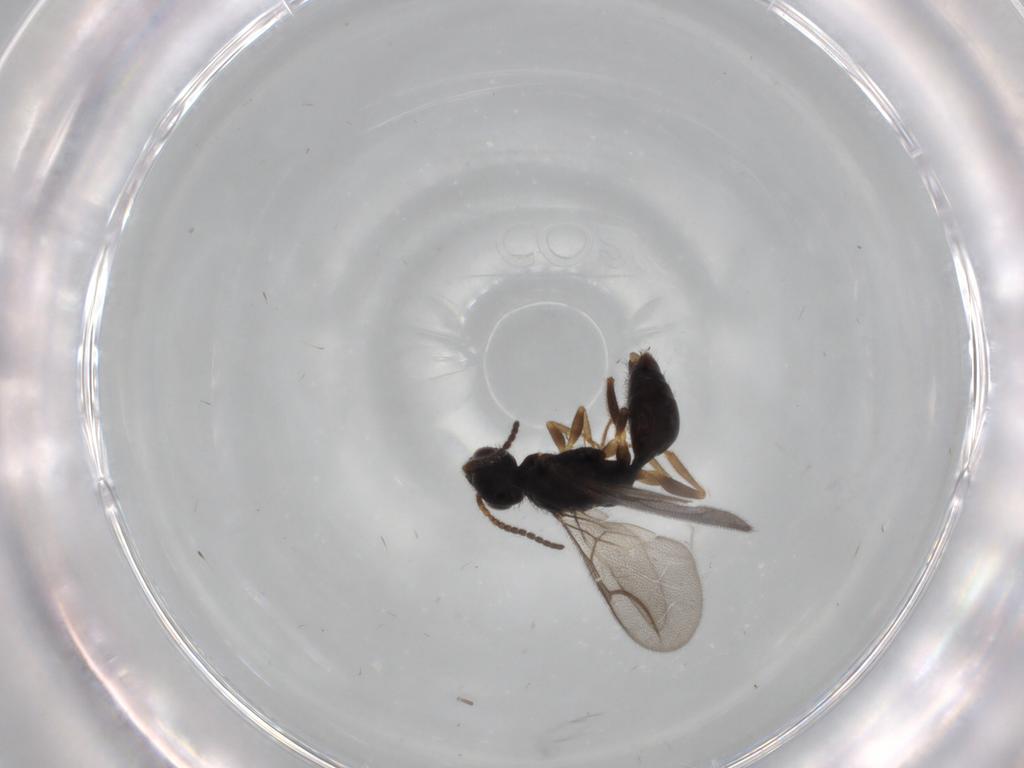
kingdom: Animalia
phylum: Arthropoda
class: Insecta
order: Hymenoptera
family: Bethylidae
